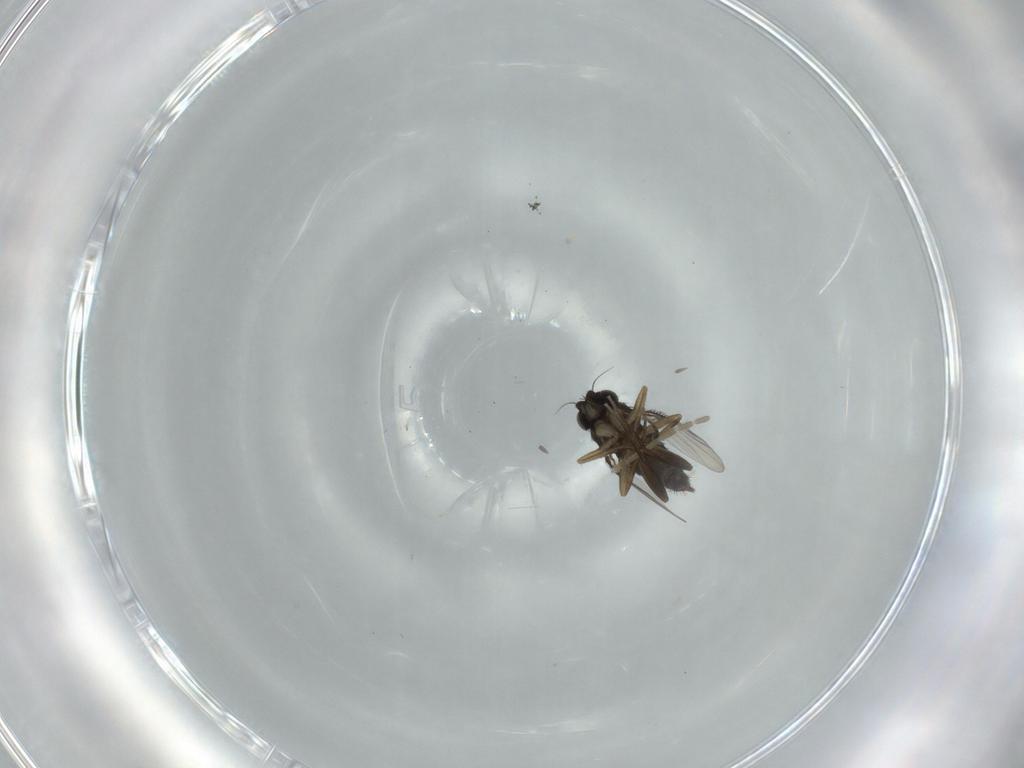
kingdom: Animalia
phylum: Arthropoda
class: Insecta
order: Diptera
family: Phoridae
